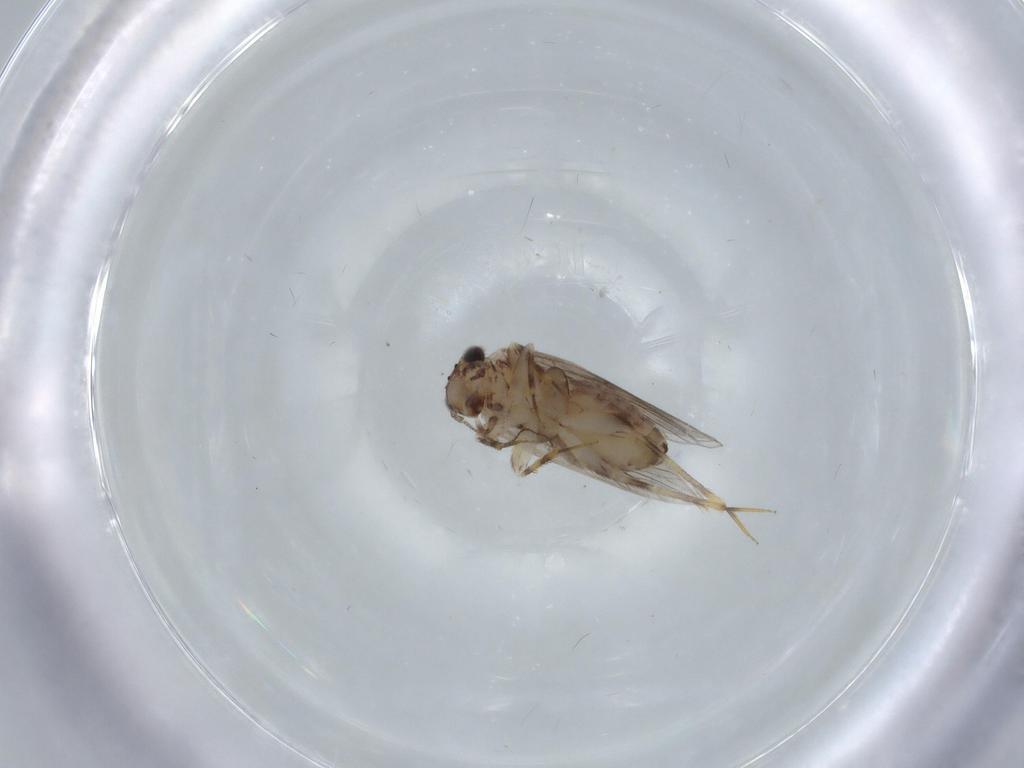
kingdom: Animalia
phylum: Arthropoda
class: Insecta
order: Psocodea
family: Lepidopsocidae
